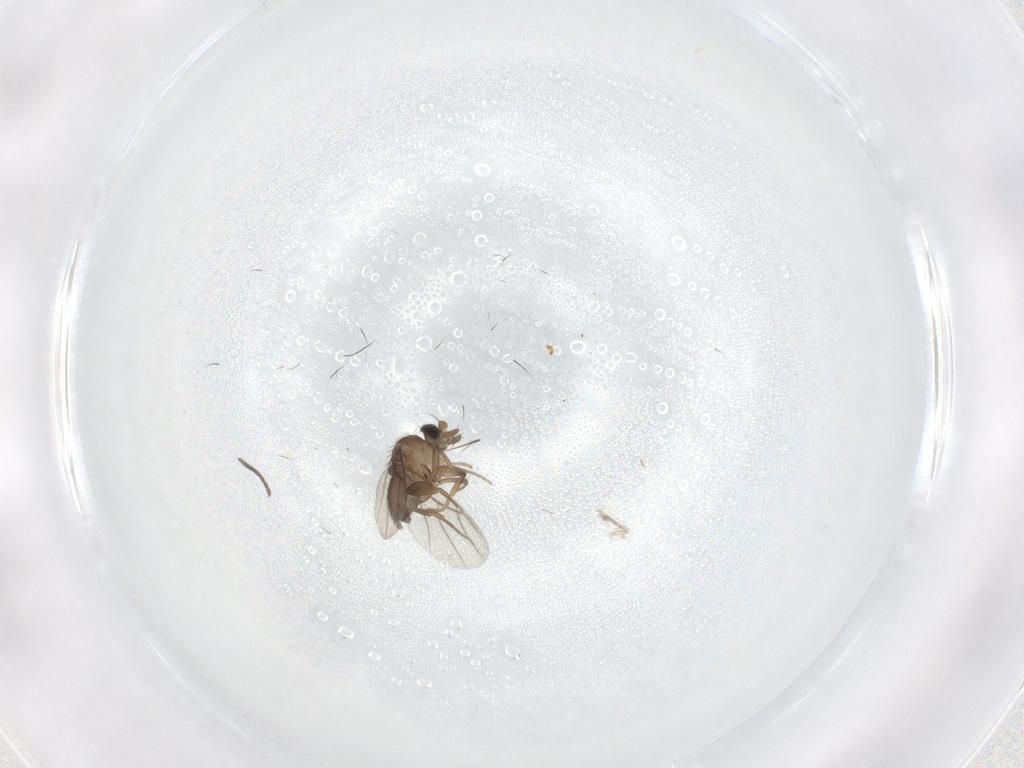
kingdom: Animalia
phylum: Arthropoda
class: Insecta
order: Diptera
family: Sciaridae
